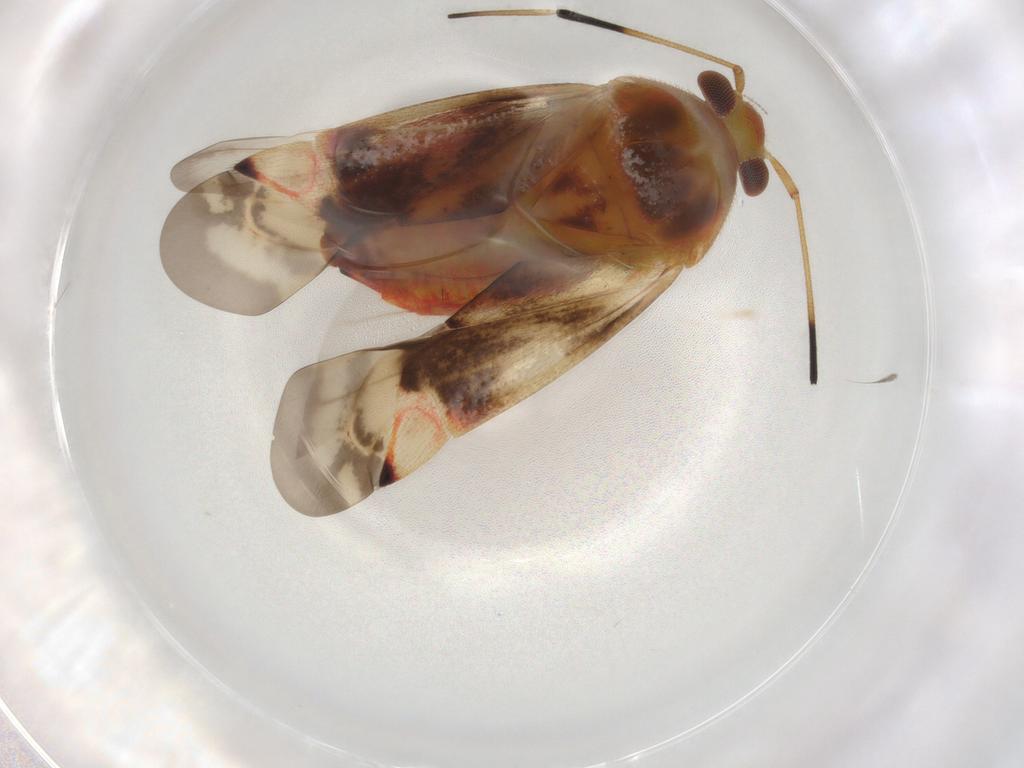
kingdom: Animalia
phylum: Arthropoda
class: Insecta
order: Hemiptera
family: Miridae
